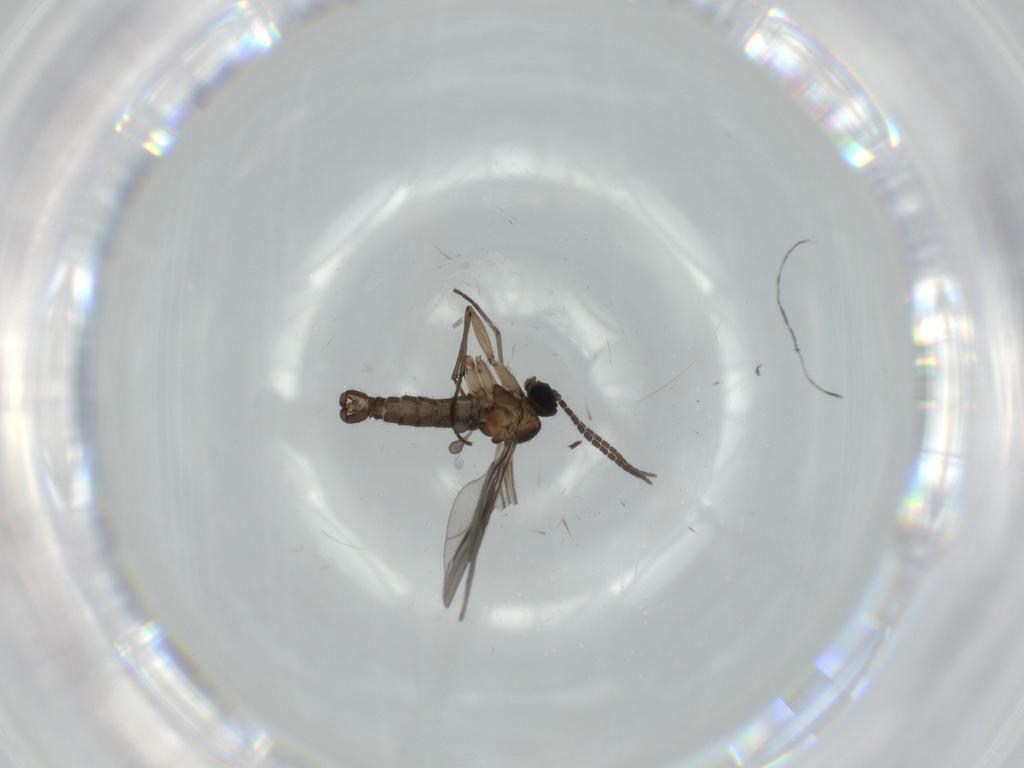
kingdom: Animalia
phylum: Arthropoda
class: Insecta
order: Diptera
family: Sciaridae
